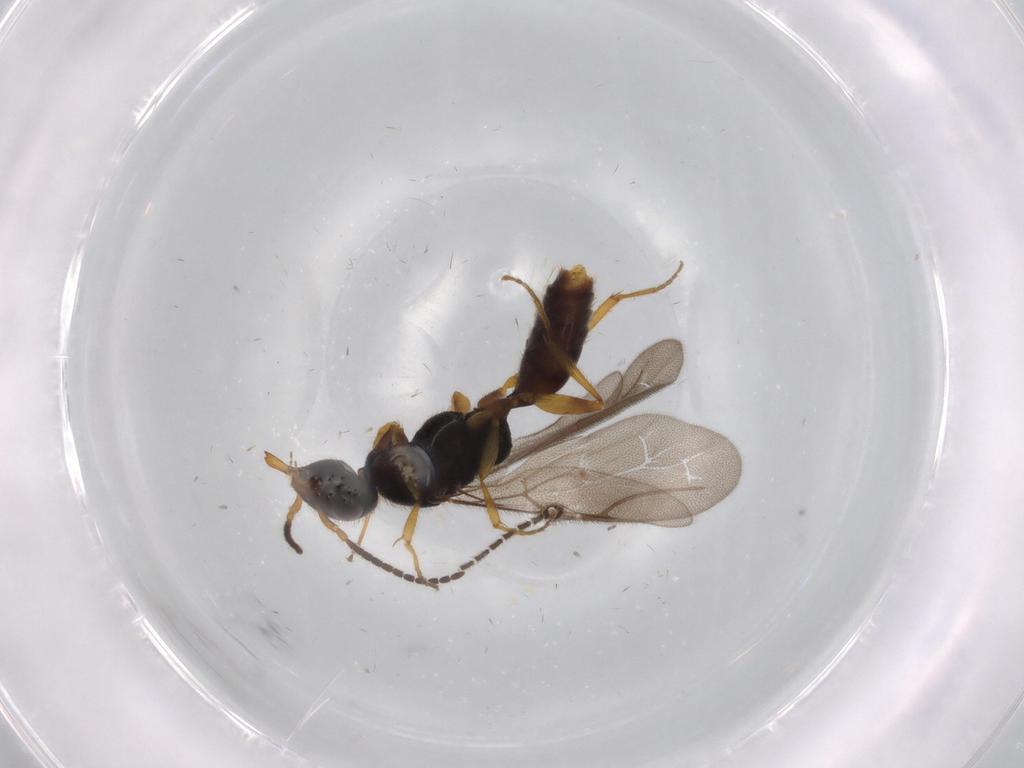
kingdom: Animalia
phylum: Arthropoda
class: Insecta
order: Hymenoptera
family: Bethylidae
